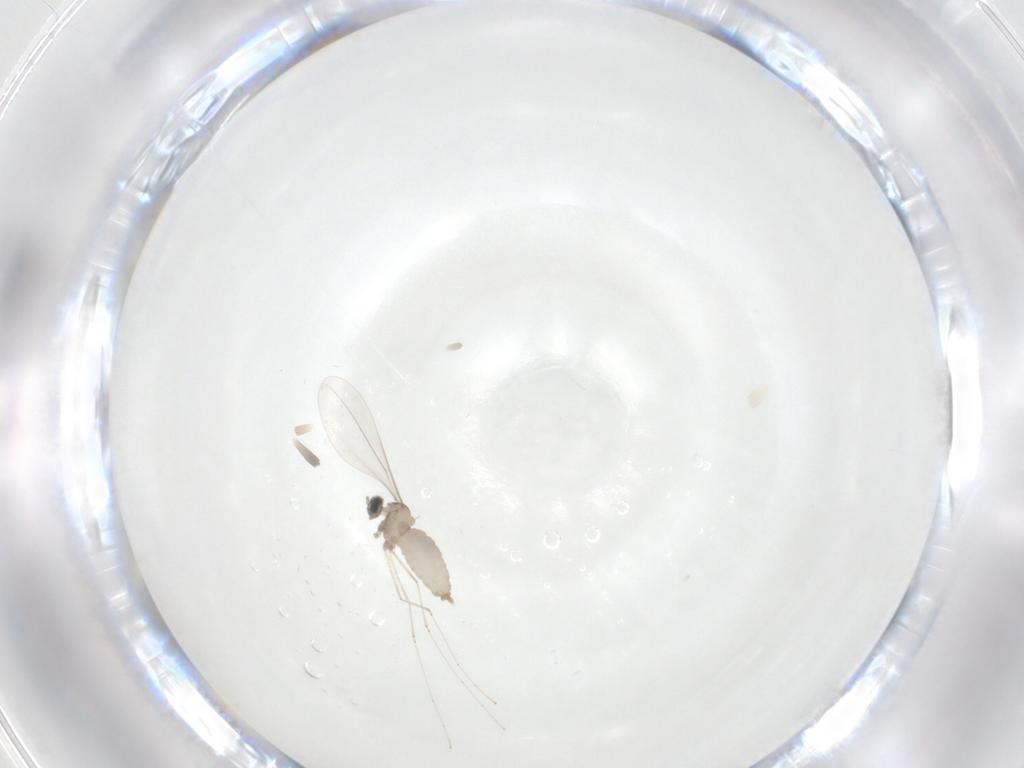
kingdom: Animalia
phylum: Arthropoda
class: Insecta
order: Diptera
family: Cecidomyiidae
